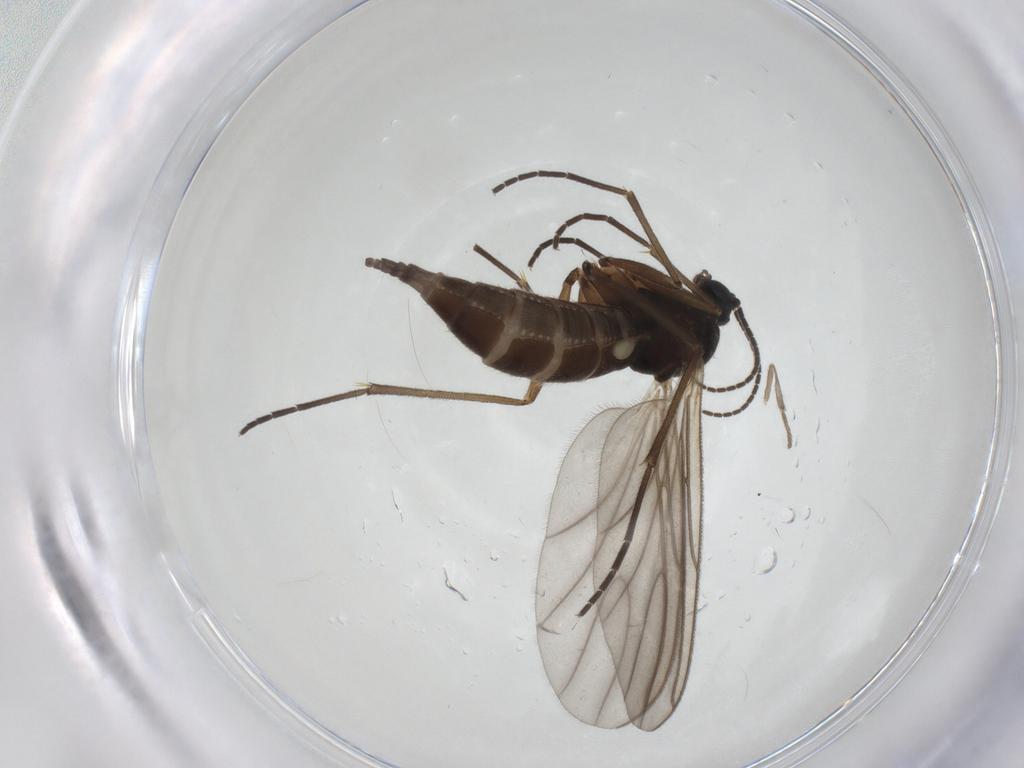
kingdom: Animalia
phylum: Arthropoda
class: Insecta
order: Diptera
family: Sciaridae
